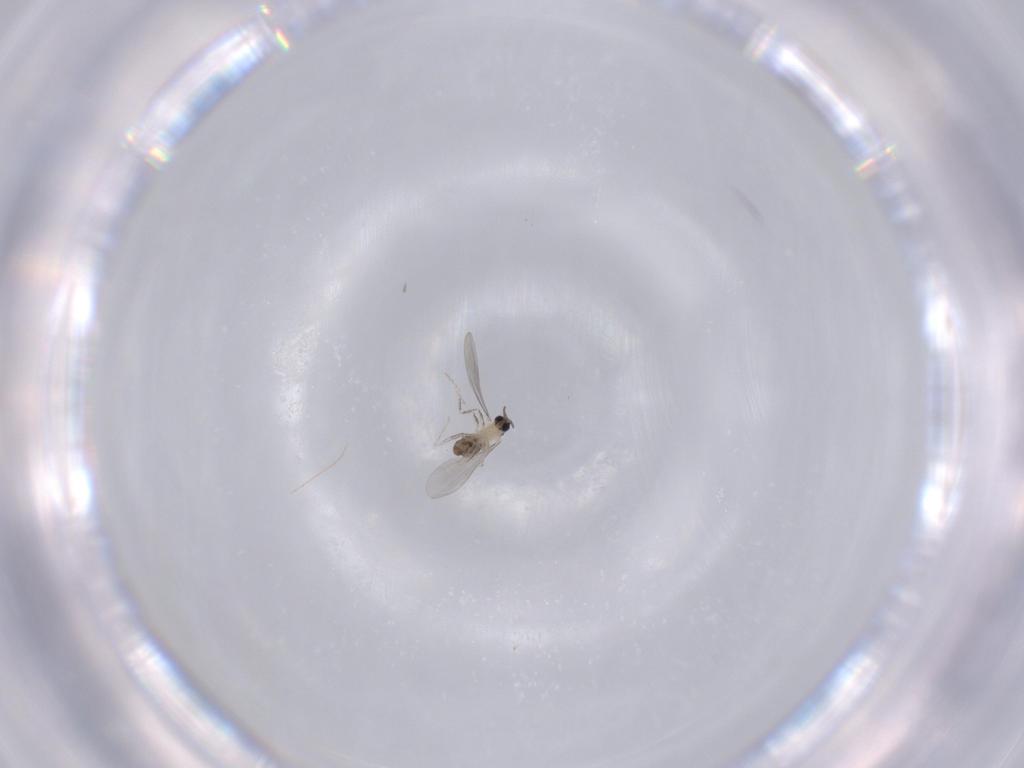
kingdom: Animalia
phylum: Arthropoda
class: Insecta
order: Diptera
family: Cecidomyiidae
